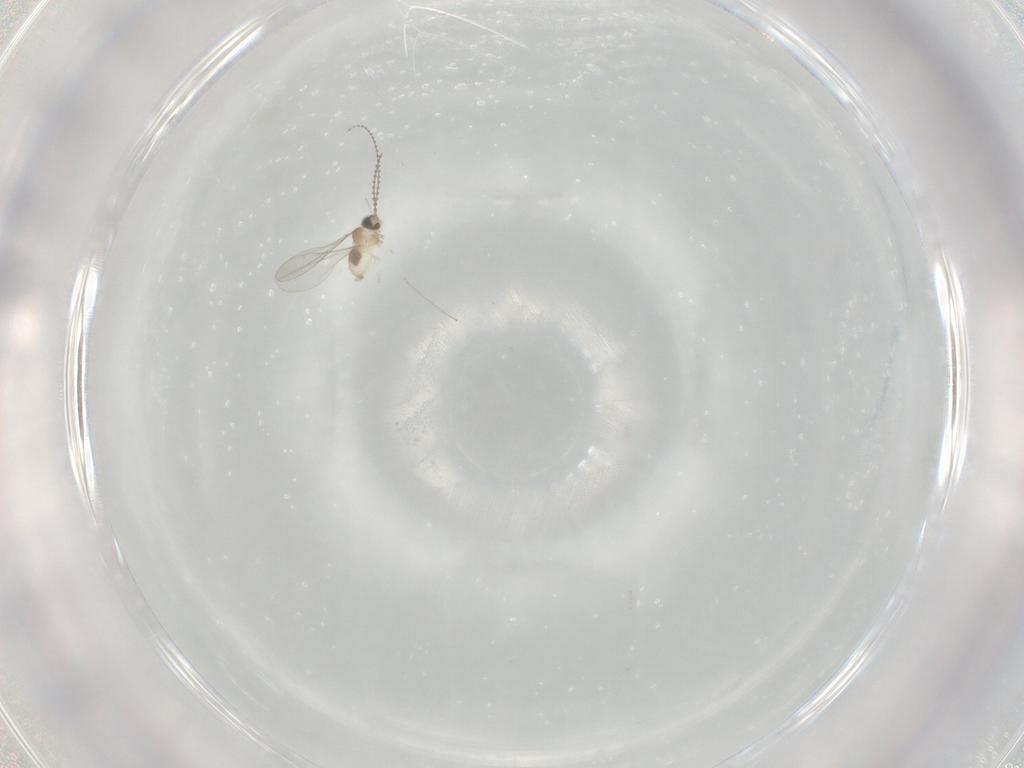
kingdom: Animalia
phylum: Arthropoda
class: Insecta
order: Diptera
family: Cecidomyiidae
